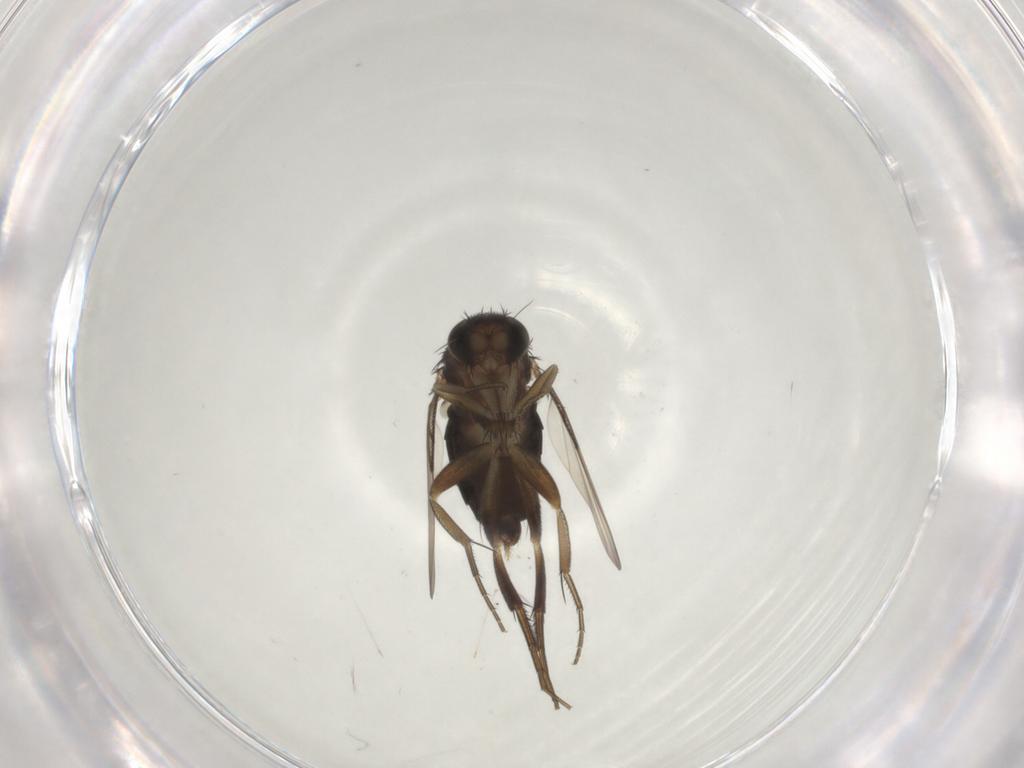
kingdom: Animalia
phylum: Arthropoda
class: Insecta
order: Diptera
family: Phoridae
